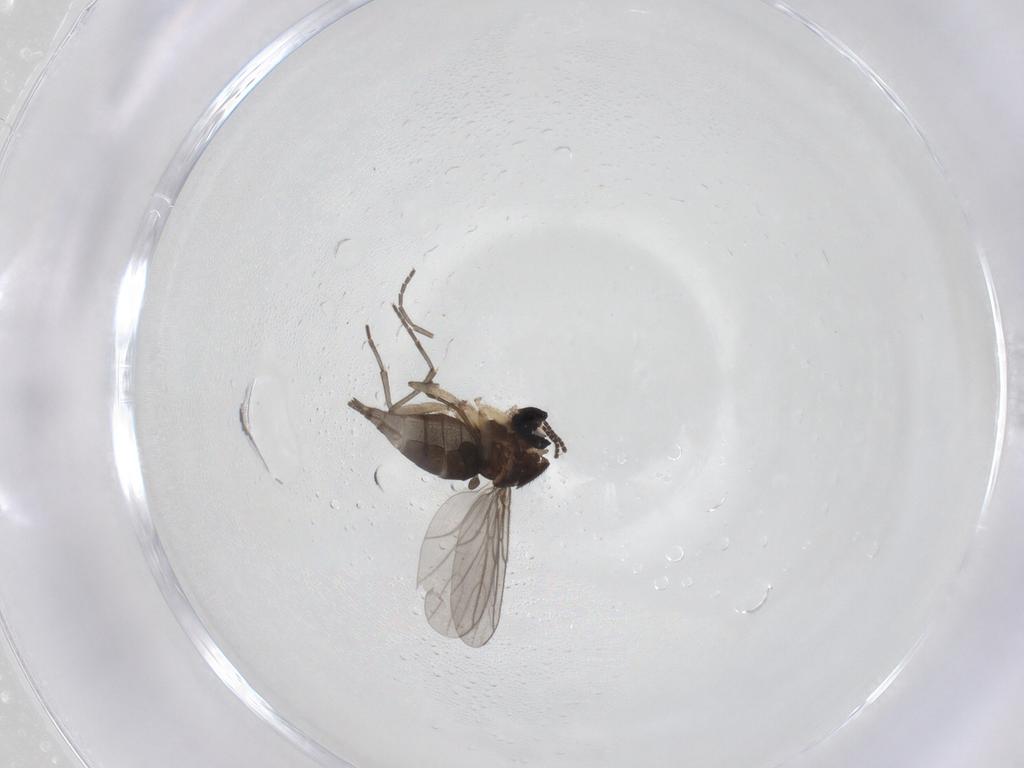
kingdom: Animalia
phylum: Arthropoda
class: Insecta
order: Diptera
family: Sciaridae
